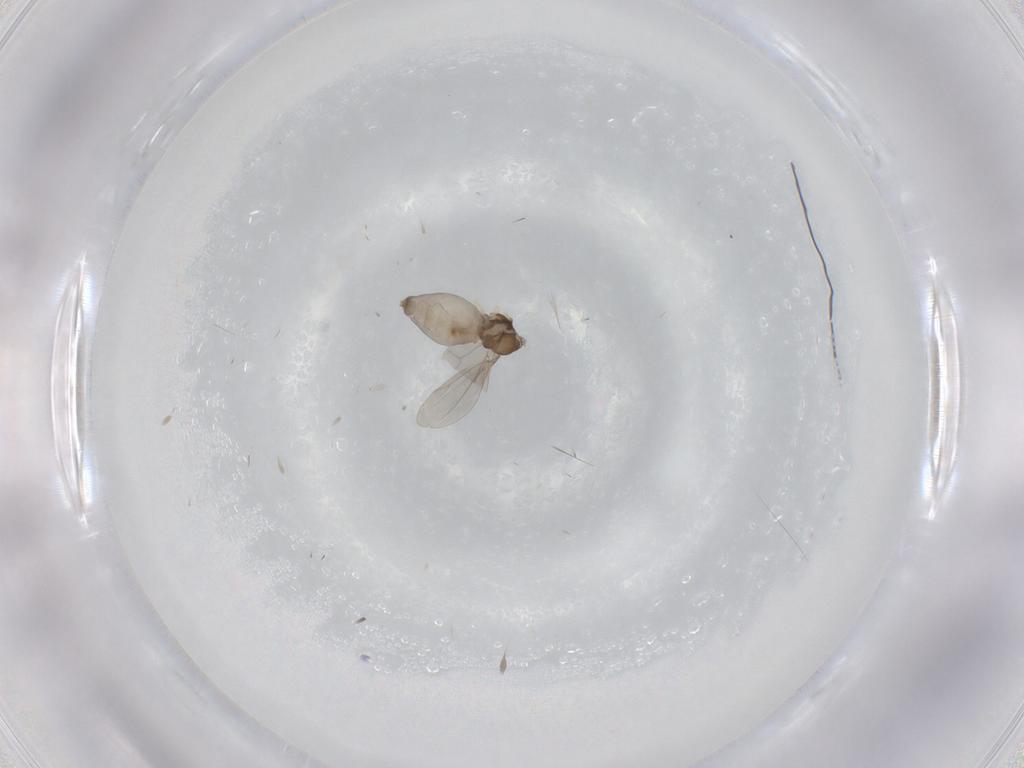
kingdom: Animalia
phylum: Arthropoda
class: Insecta
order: Diptera
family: Cecidomyiidae
